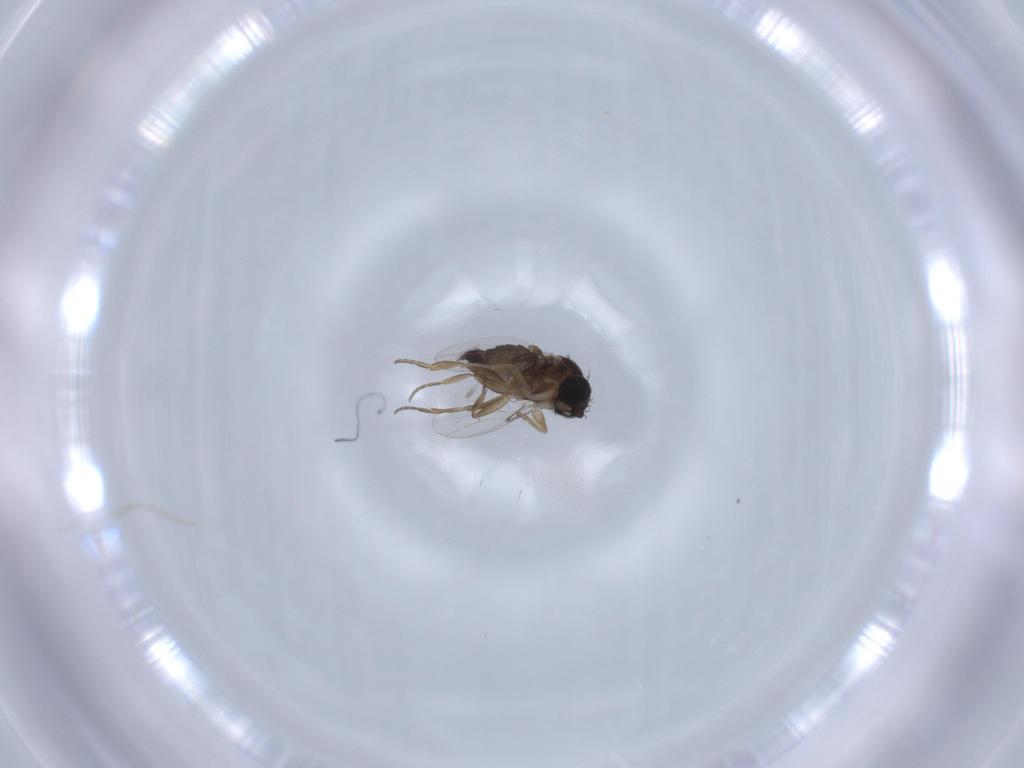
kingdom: Animalia
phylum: Arthropoda
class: Insecta
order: Diptera
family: Phoridae
